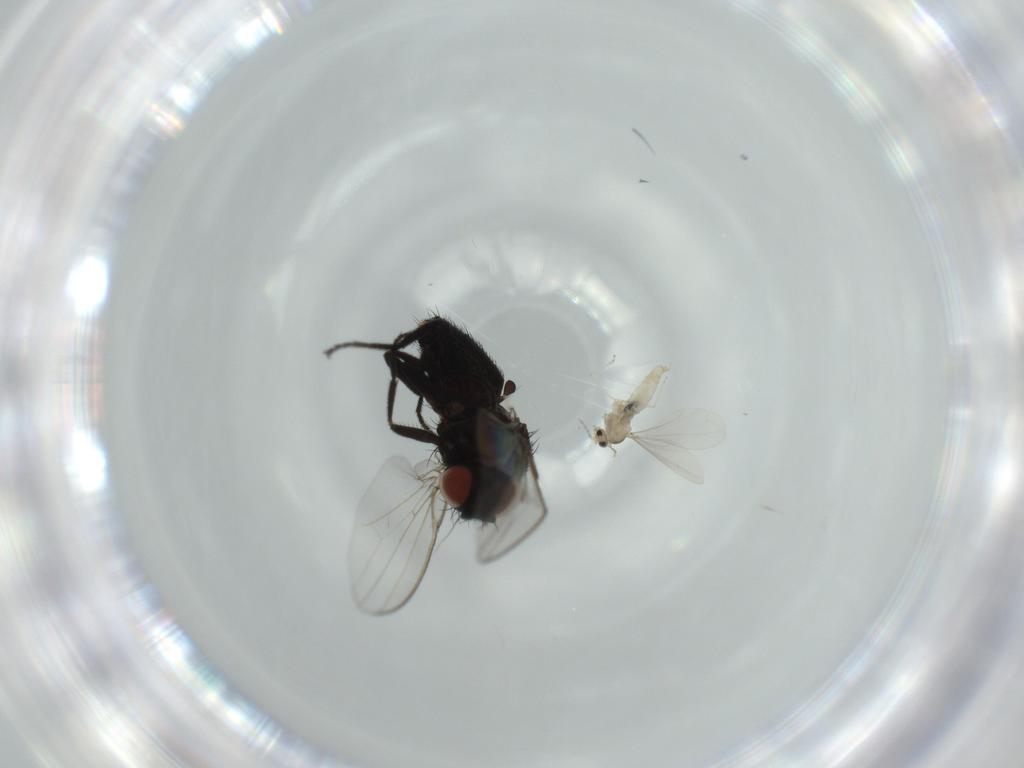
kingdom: Animalia
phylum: Arthropoda
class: Insecta
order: Diptera
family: Milichiidae
